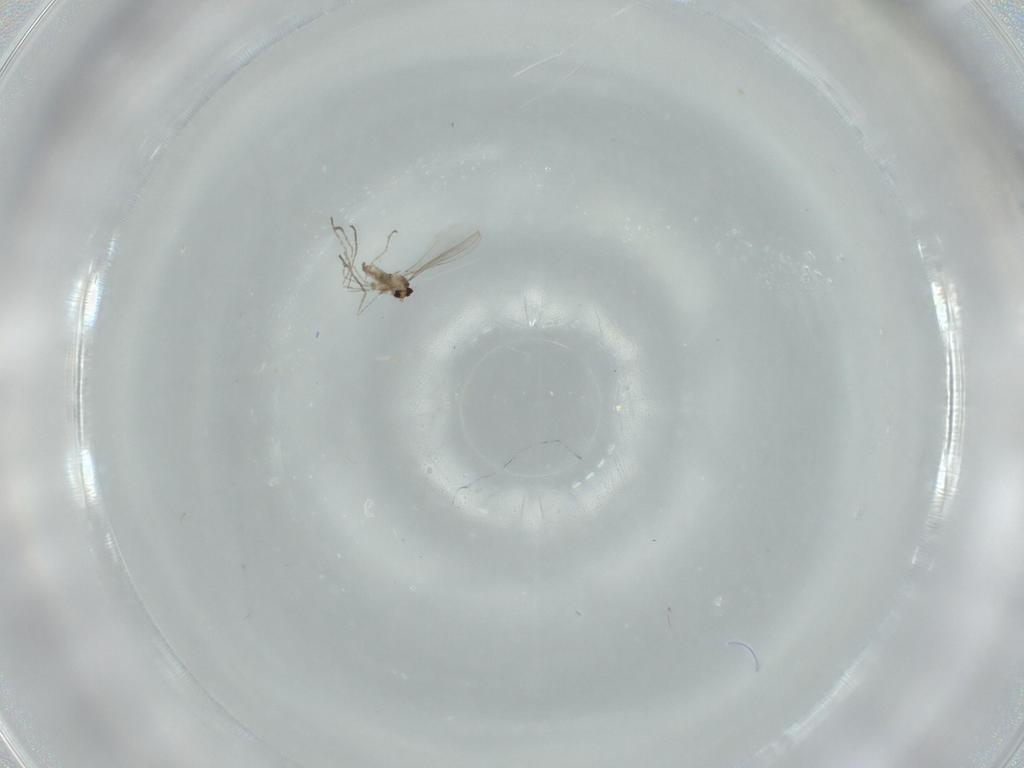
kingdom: Animalia
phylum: Arthropoda
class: Insecta
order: Diptera
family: Cecidomyiidae
